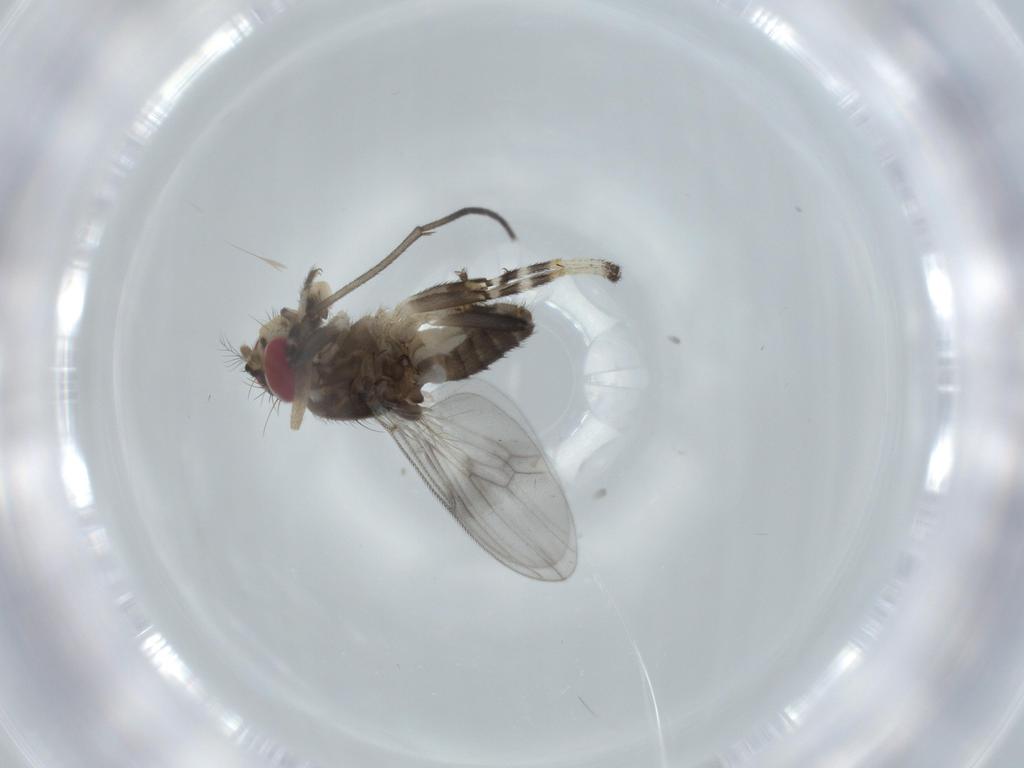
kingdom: Animalia
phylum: Arthropoda
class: Insecta
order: Diptera
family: Periscelididae
